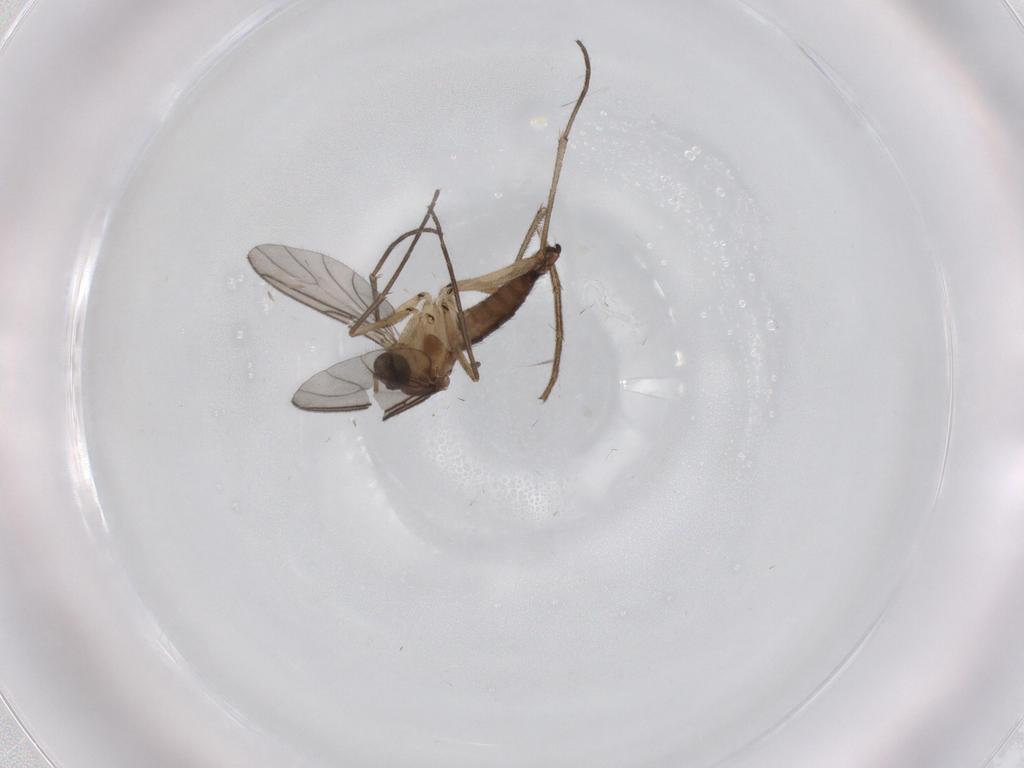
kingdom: Animalia
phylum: Arthropoda
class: Insecta
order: Diptera
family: Sciaridae
